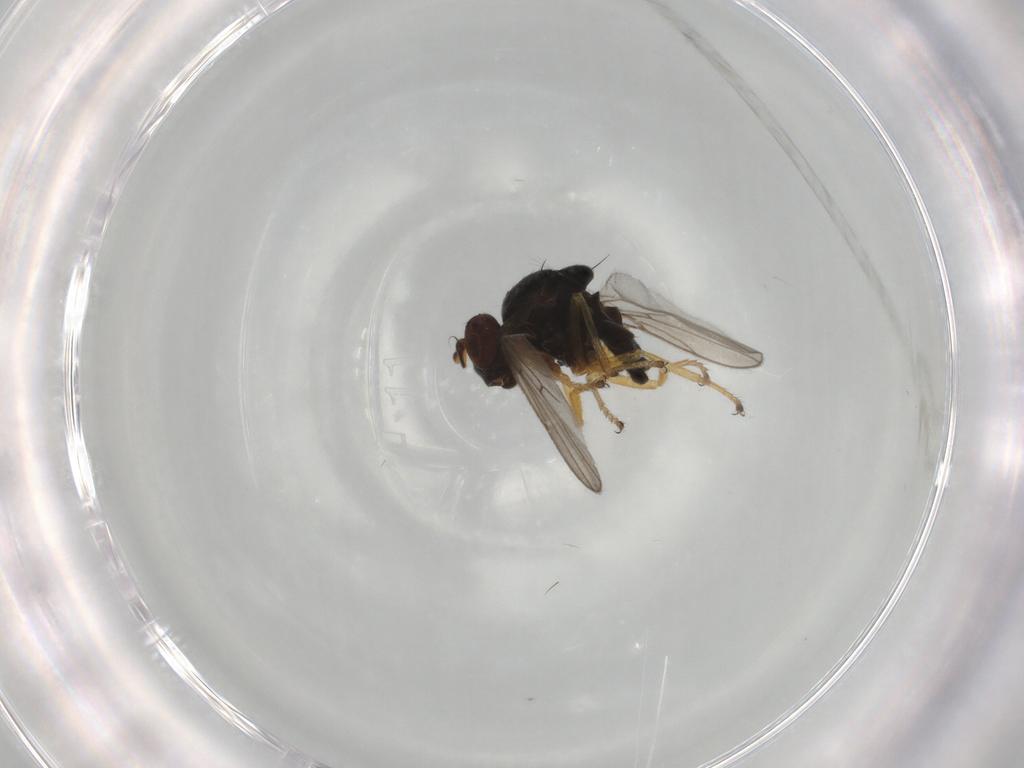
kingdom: Animalia
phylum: Arthropoda
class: Insecta
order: Diptera
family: Ephydridae
